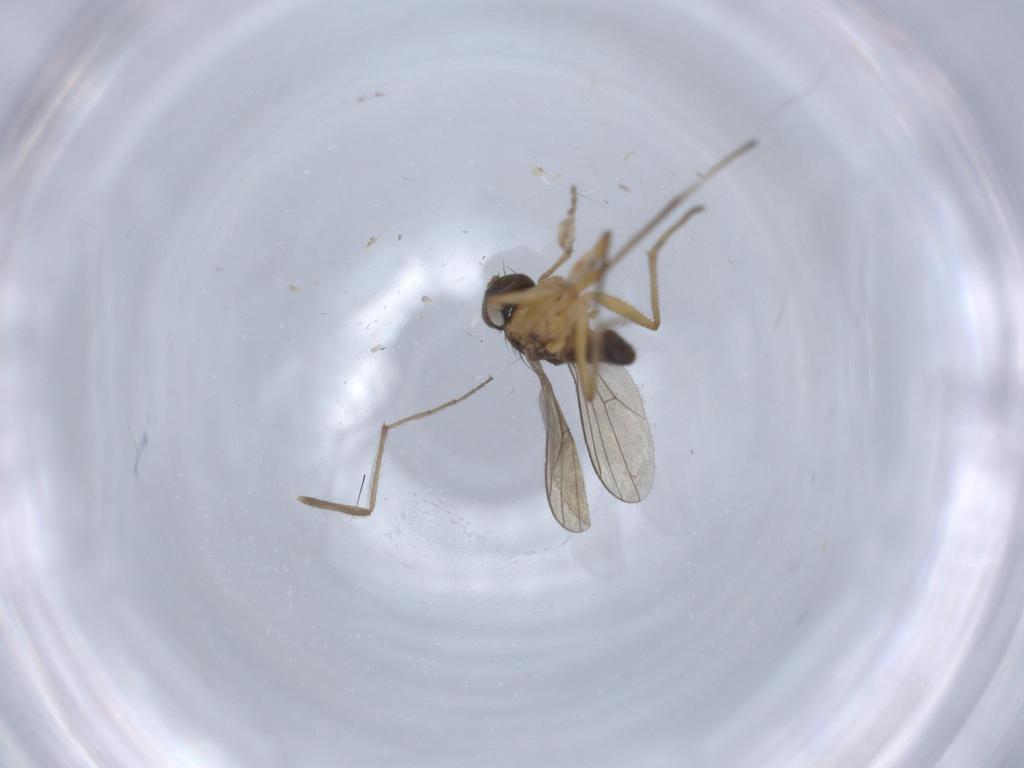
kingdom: Animalia
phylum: Arthropoda
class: Insecta
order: Diptera
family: Dolichopodidae
